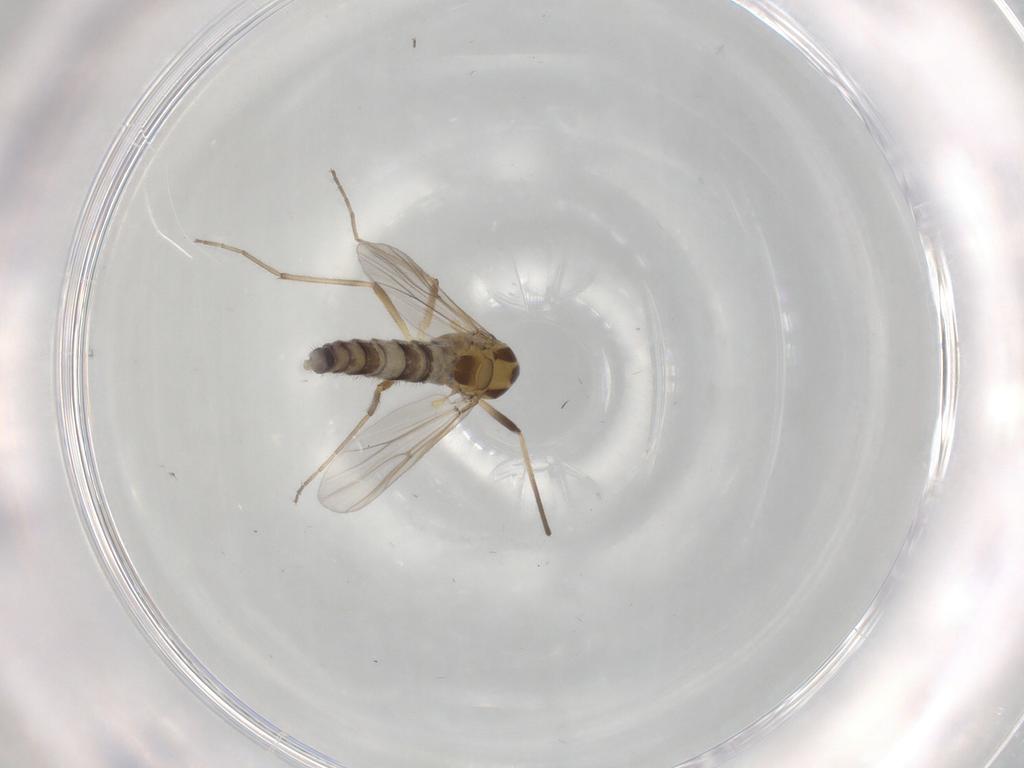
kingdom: Animalia
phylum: Arthropoda
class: Insecta
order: Diptera
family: Chironomidae
